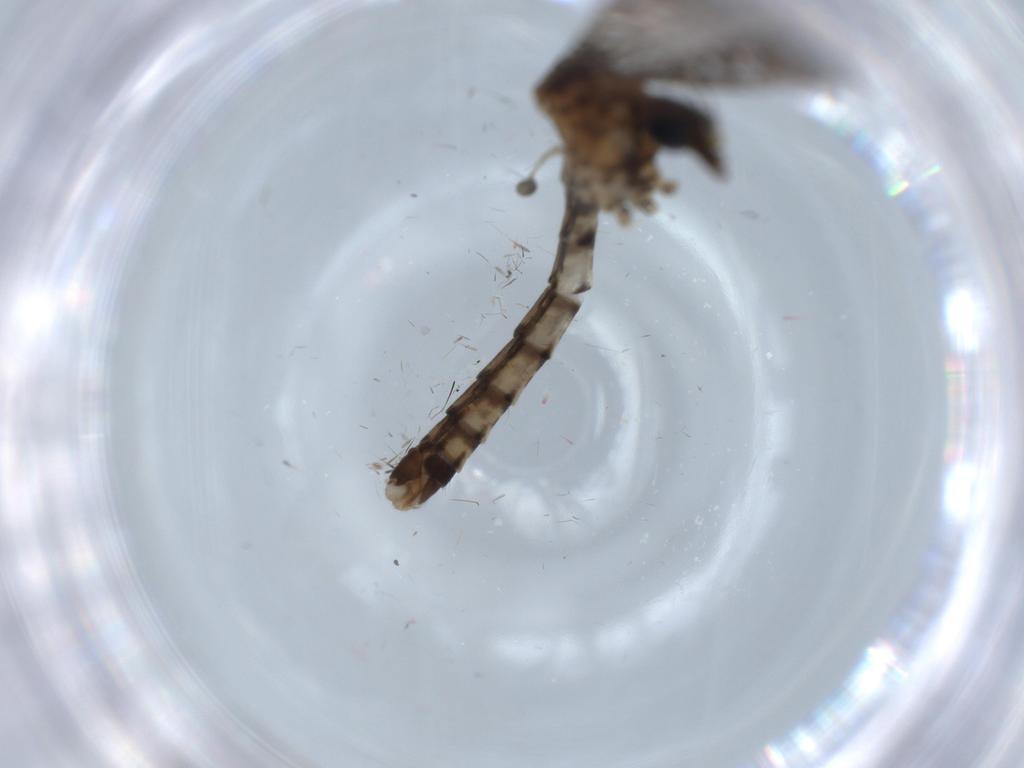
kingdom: Animalia
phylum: Arthropoda
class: Insecta
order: Diptera
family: Chironomidae
